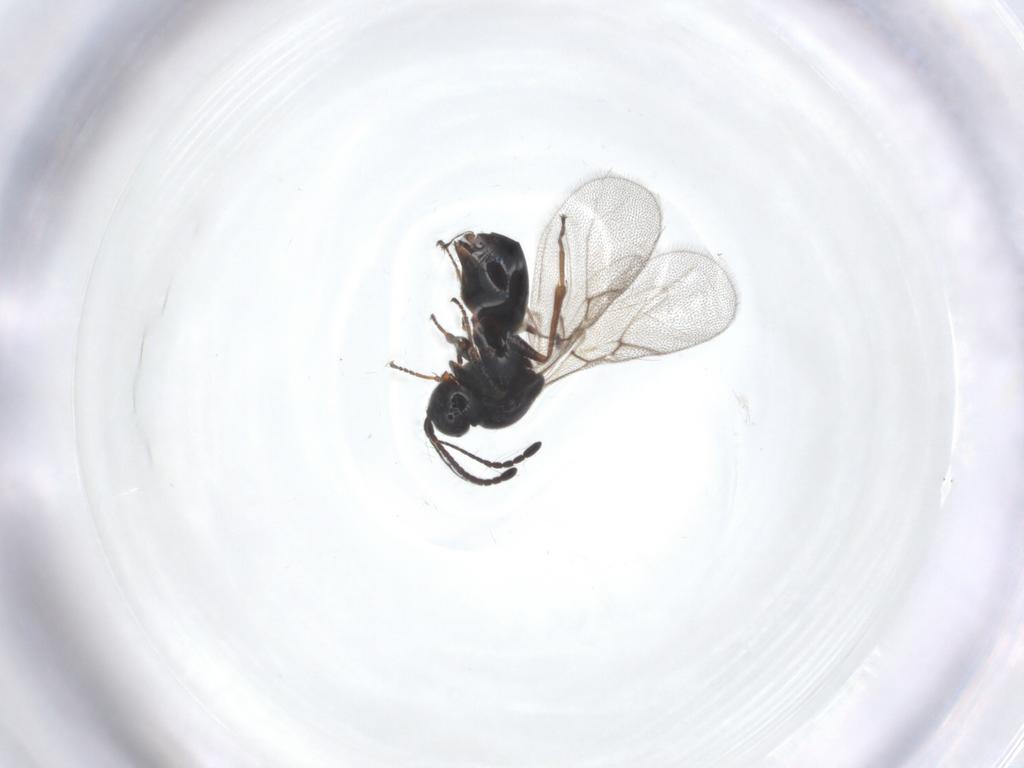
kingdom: Animalia
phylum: Arthropoda
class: Insecta
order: Hymenoptera
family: Figitidae
